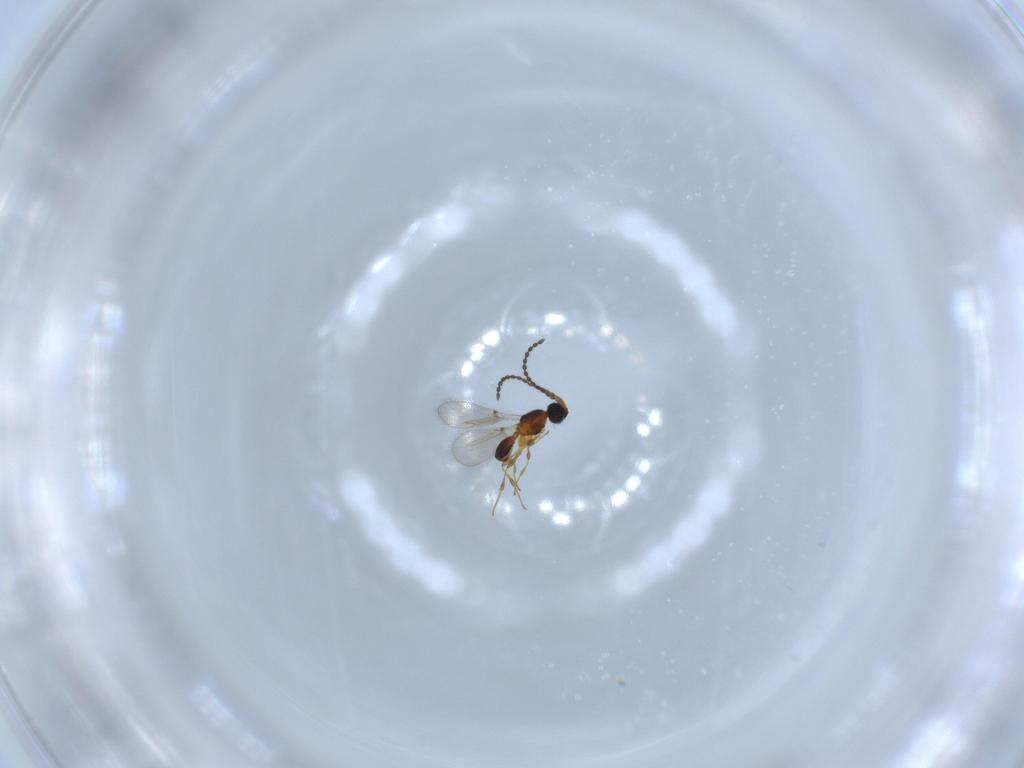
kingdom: Animalia
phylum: Arthropoda
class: Insecta
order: Hymenoptera
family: Diapriidae
